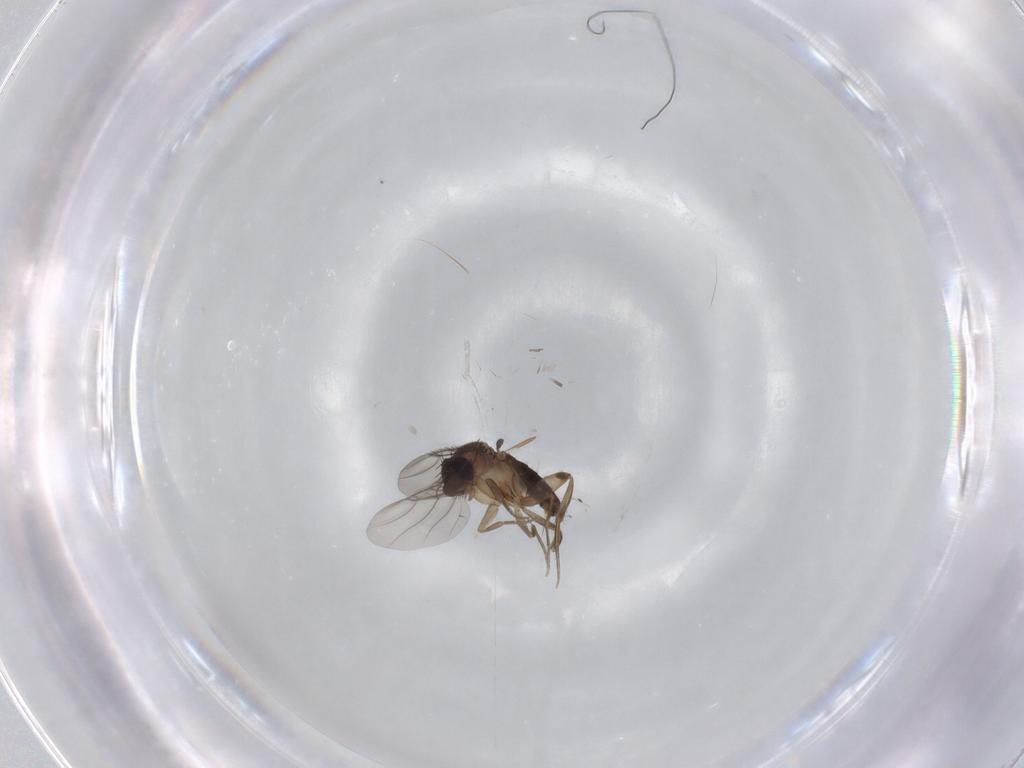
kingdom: Animalia
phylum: Arthropoda
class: Insecta
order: Diptera
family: Phoridae
